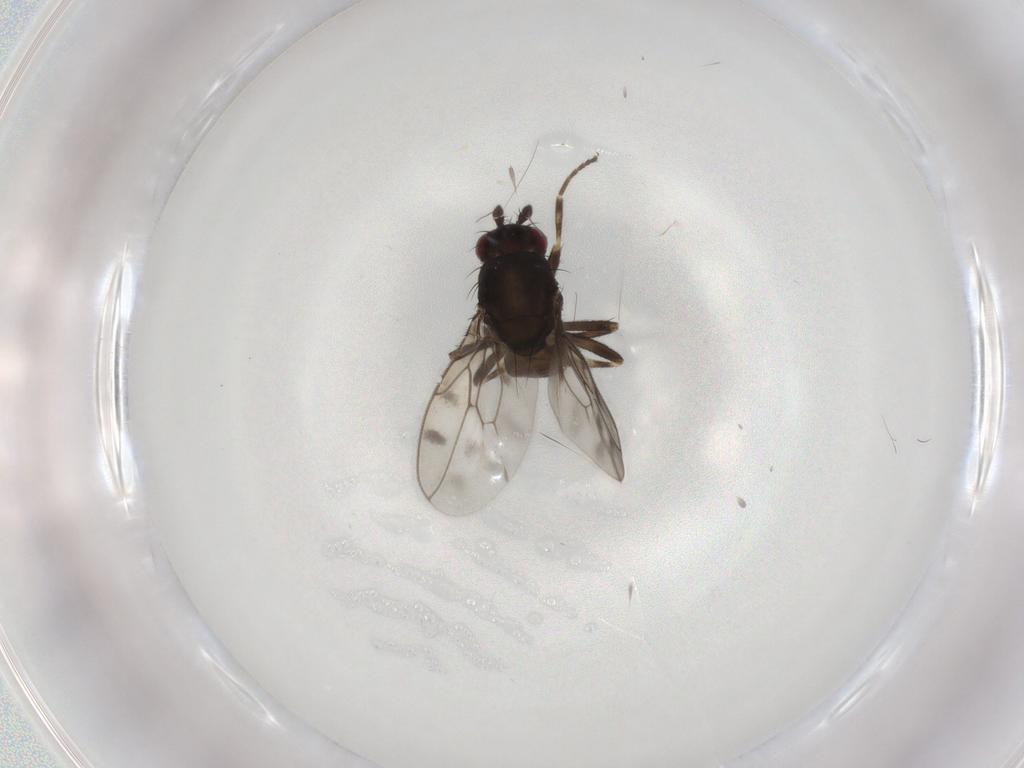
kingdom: Animalia
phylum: Arthropoda
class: Insecta
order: Diptera
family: Sphaeroceridae
